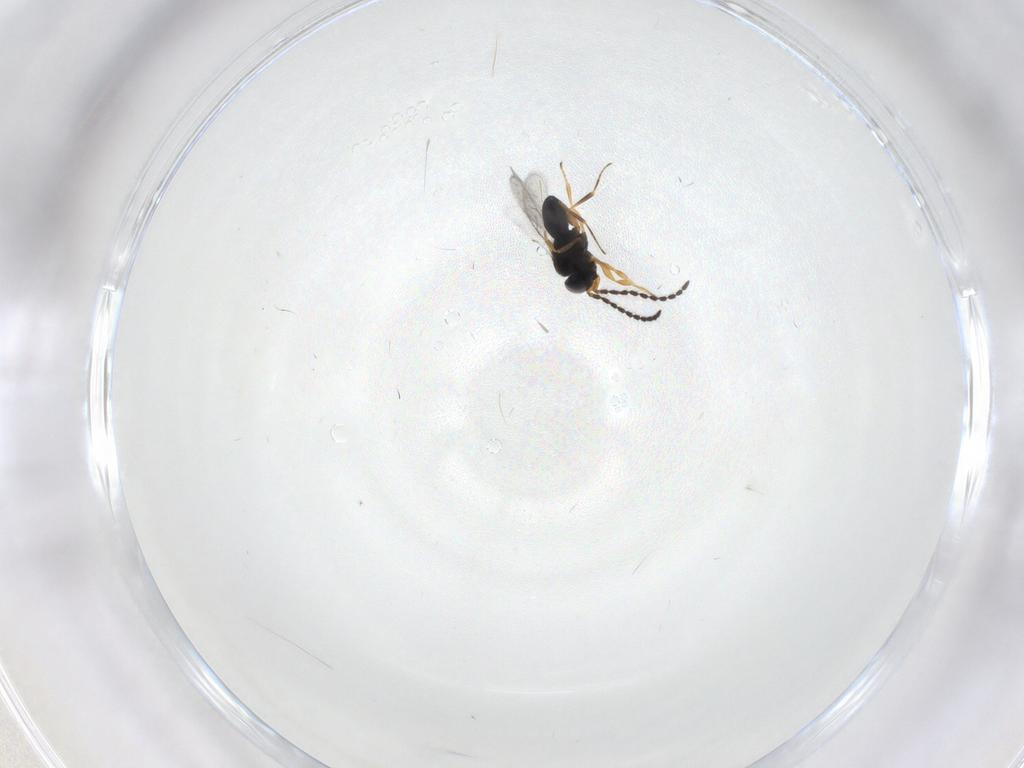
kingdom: Animalia
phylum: Arthropoda
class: Insecta
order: Hymenoptera
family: Scelionidae
